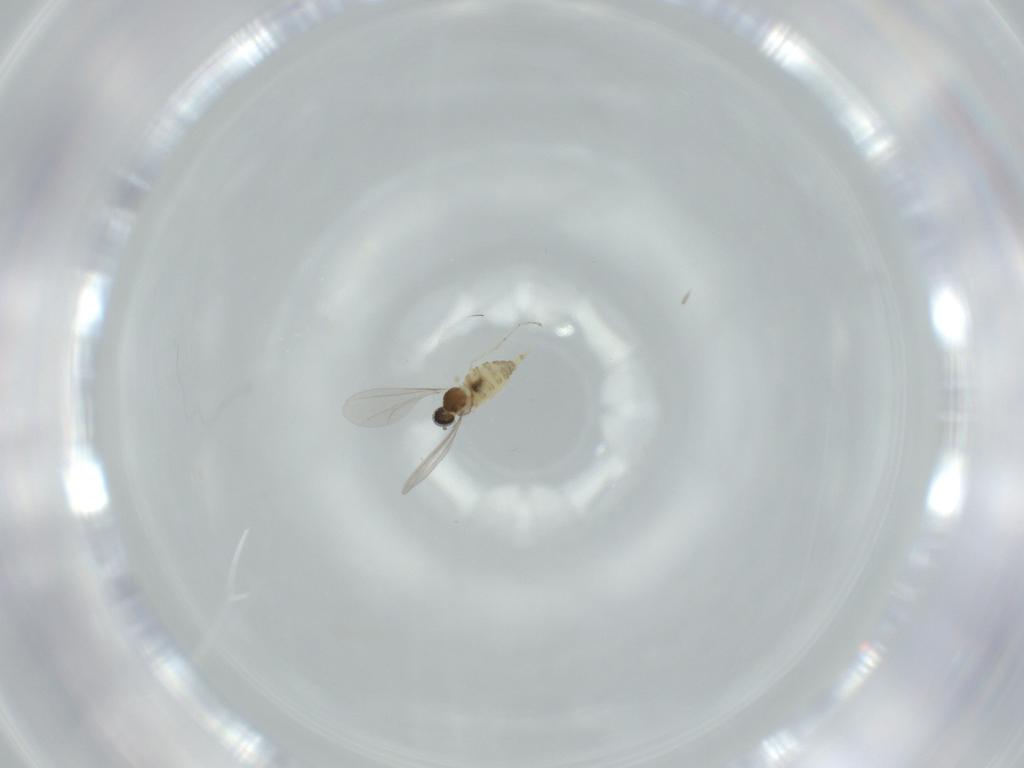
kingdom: Animalia
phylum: Arthropoda
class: Insecta
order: Diptera
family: Cecidomyiidae
